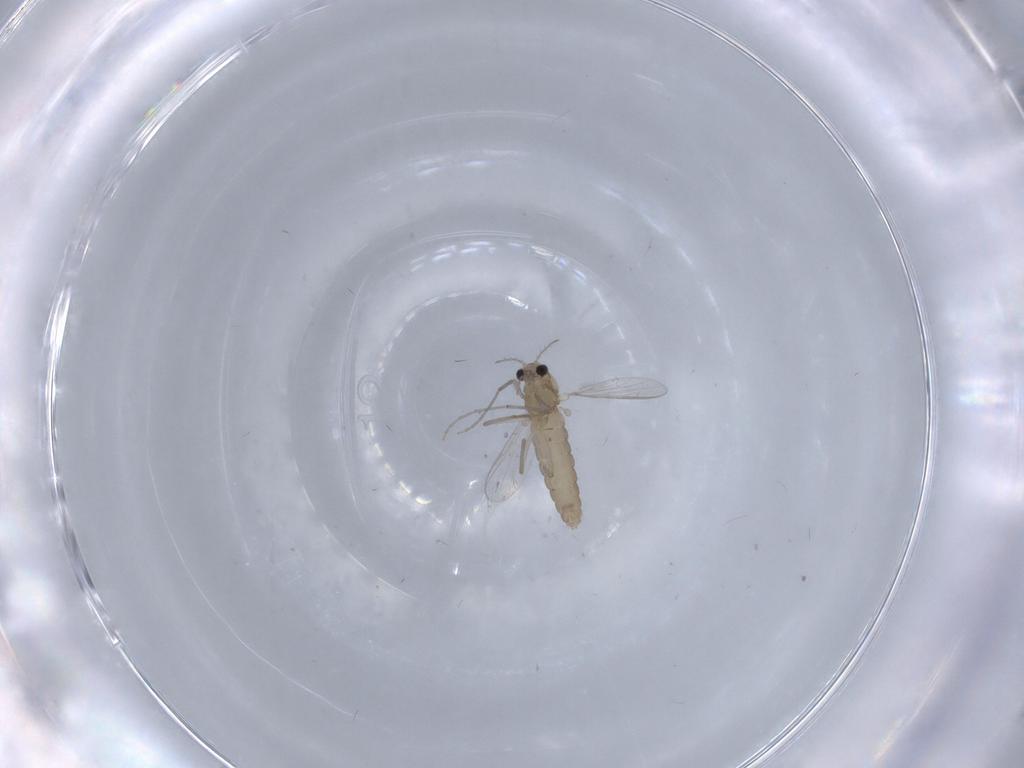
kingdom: Animalia
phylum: Arthropoda
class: Insecta
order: Diptera
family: Chironomidae
